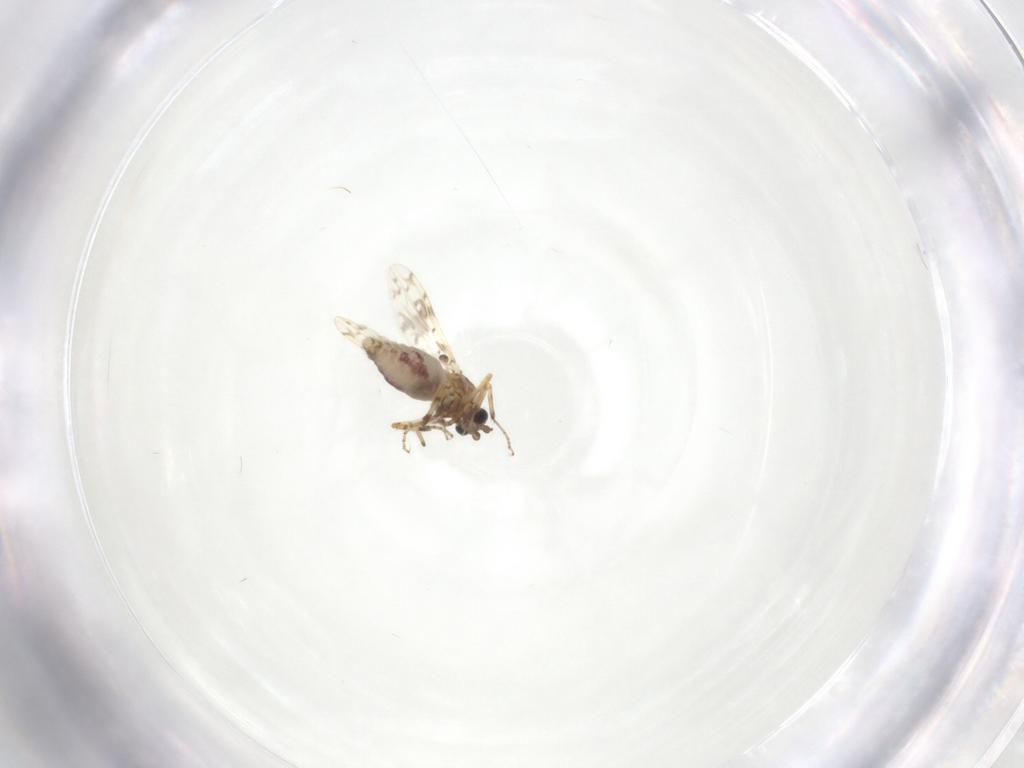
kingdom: Animalia
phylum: Arthropoda
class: Insecta
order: Diptera
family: Ceratopogonidae
